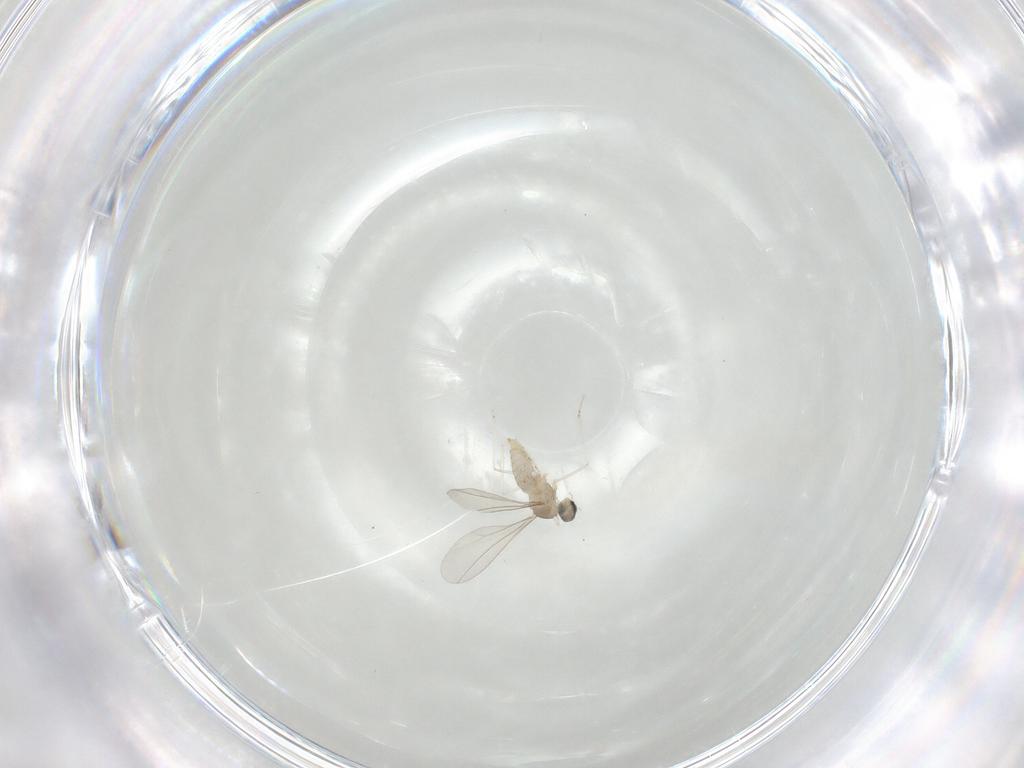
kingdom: Animalia
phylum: Arthropoda
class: Insecta
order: Diptera
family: Cecidomyiidae
